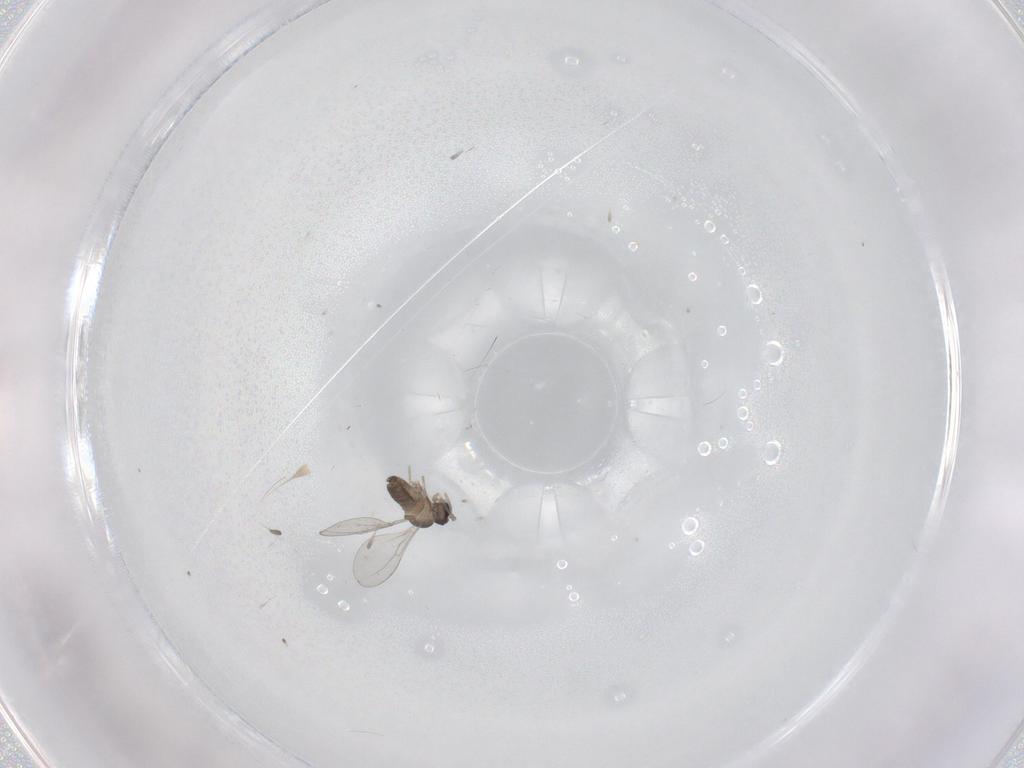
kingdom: Animalia
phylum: Arthropoda
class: Insecta
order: Diptera
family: Cecidomyiidae
